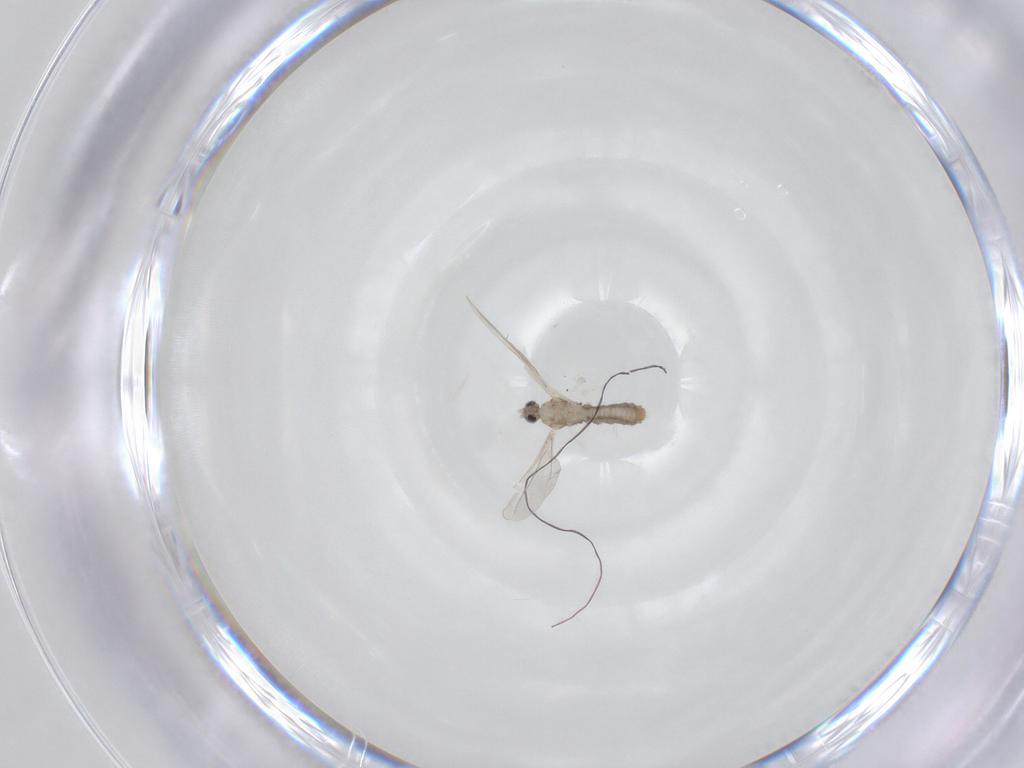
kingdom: Animalia
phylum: Arthropoda
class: Insecta
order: Diptera
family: Cecidomyiidae
